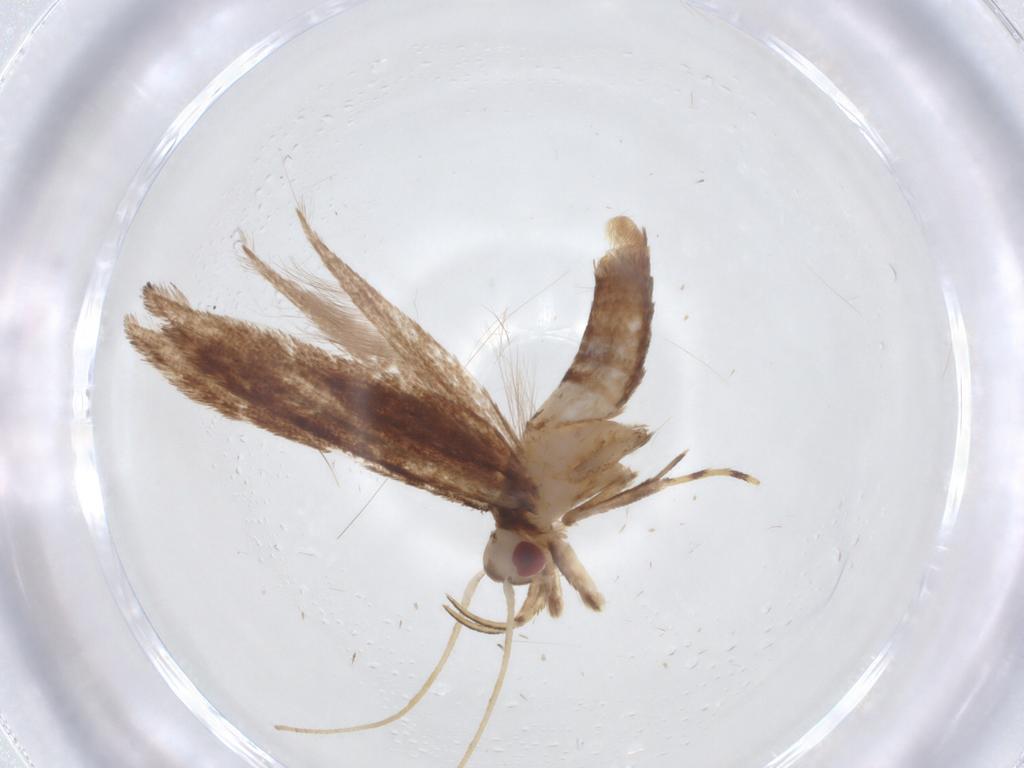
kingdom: Animalia
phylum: Arthropoda
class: Insecta
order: Lepidoptera
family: Cosmopterigidae
